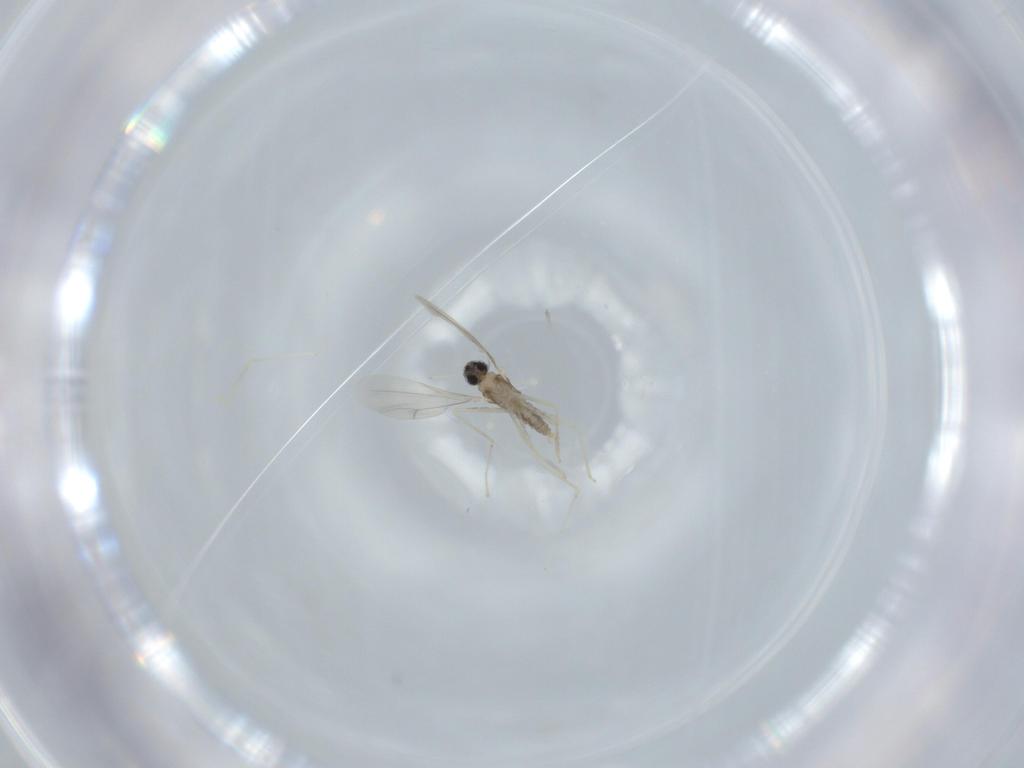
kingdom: Animalia
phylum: Arthropoda
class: Insecta
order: Diptera
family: Cecidomyiidae
